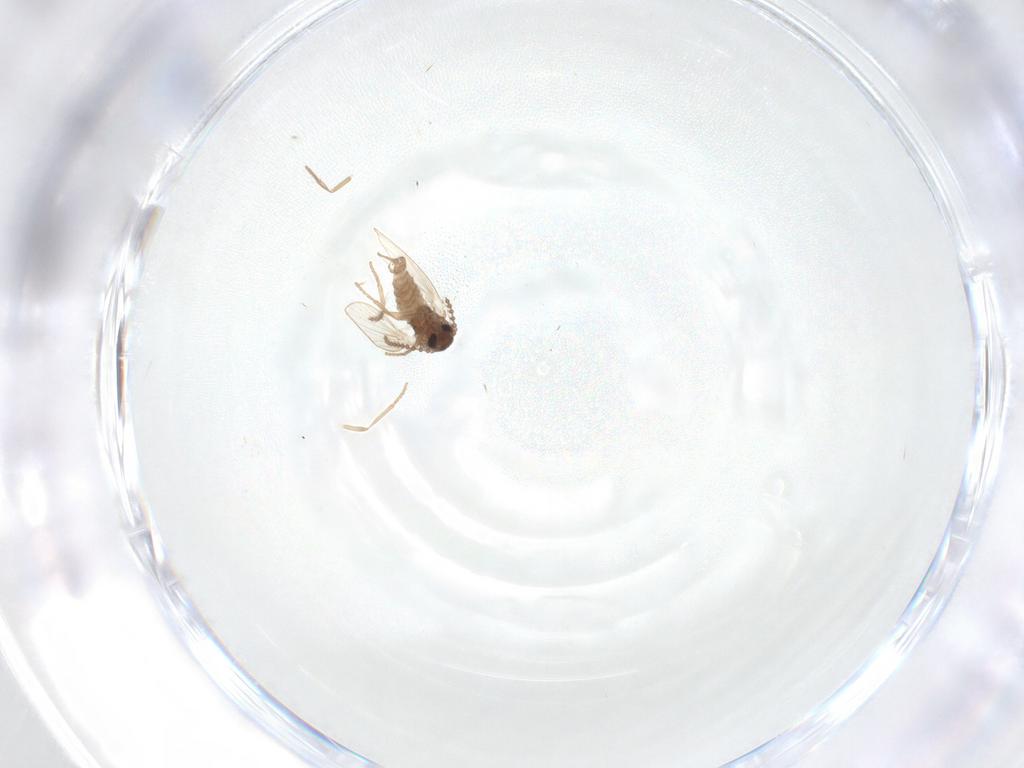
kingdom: Animalia
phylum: Arthropoda
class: Insecta
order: Diptera
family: Psychodidae
